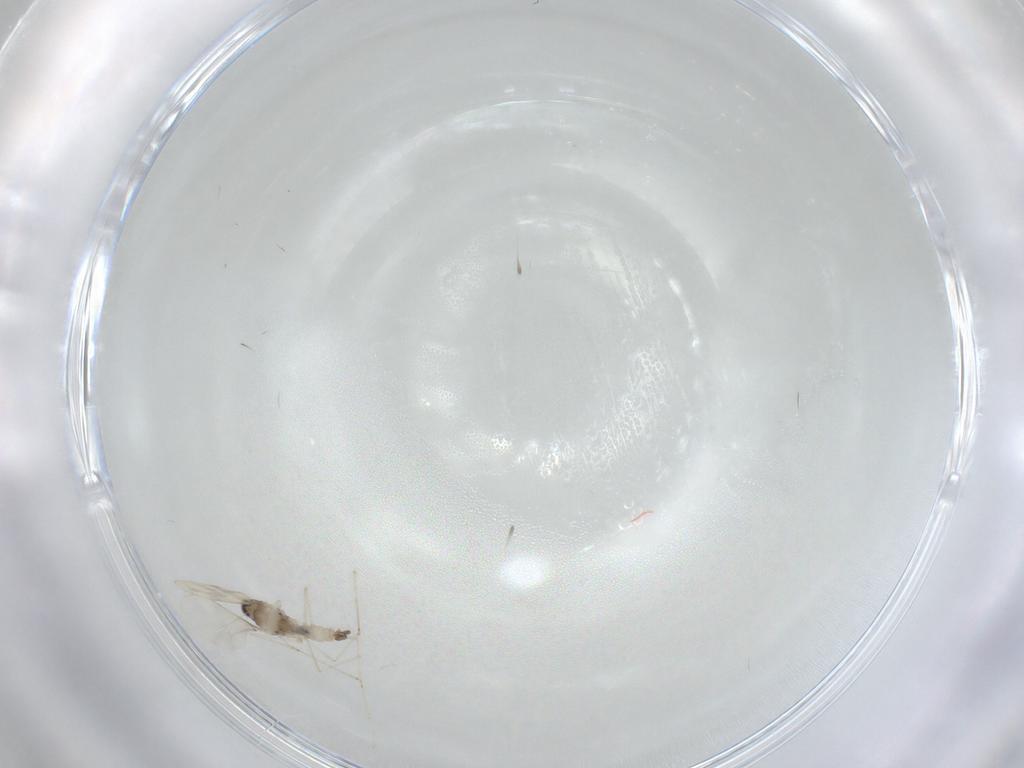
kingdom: Animalia
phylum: Arthropoda
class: Insecta
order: Diptera
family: Cecidomyiidae
